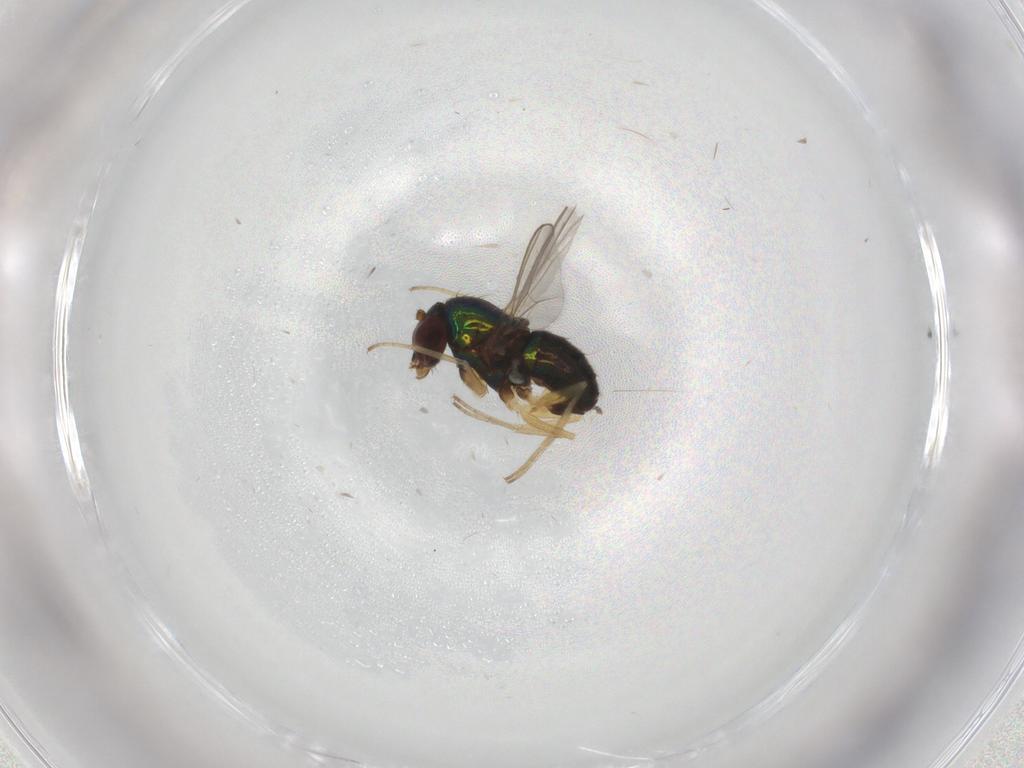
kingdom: Animalia
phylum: Arthropoda
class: Insecta
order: Diptera
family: Dolichopodidae
